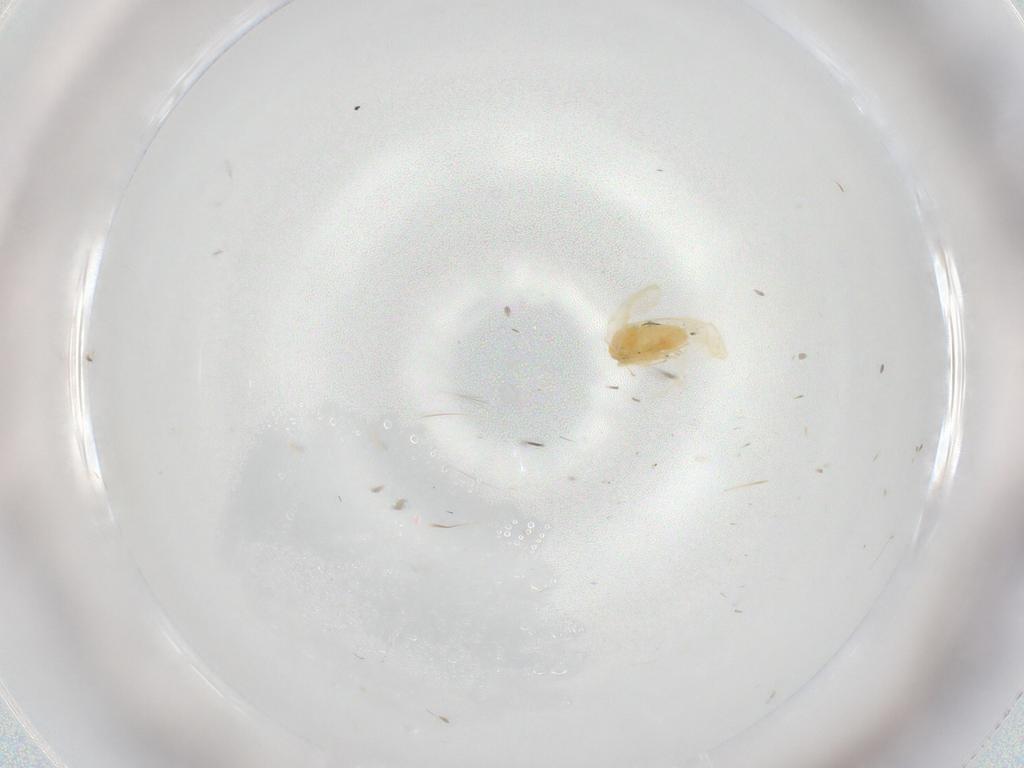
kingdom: Animalia
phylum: Arthropoda
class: Insecta
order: Hemiptera
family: Aleyrodidae
